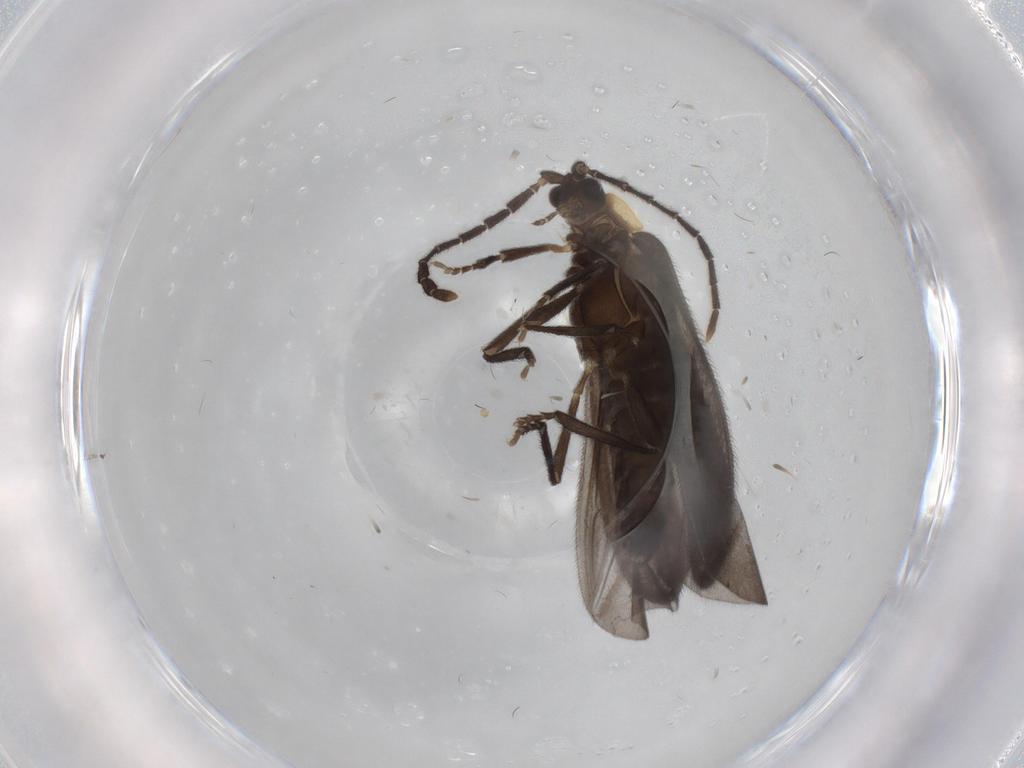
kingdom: Animalia
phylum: Arthropoda
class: Insecta
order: Coleoptera
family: Lycidae
